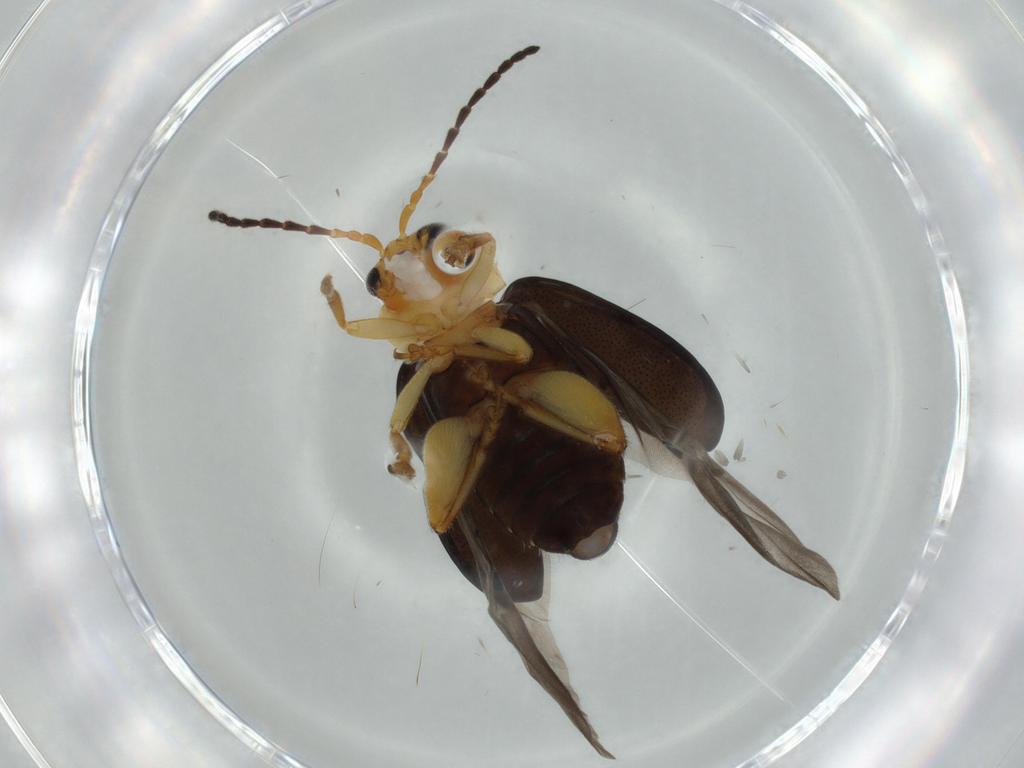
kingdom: Animalia
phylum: Arthropoda
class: Insecta
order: Coleoptera
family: Chrysomelidae
